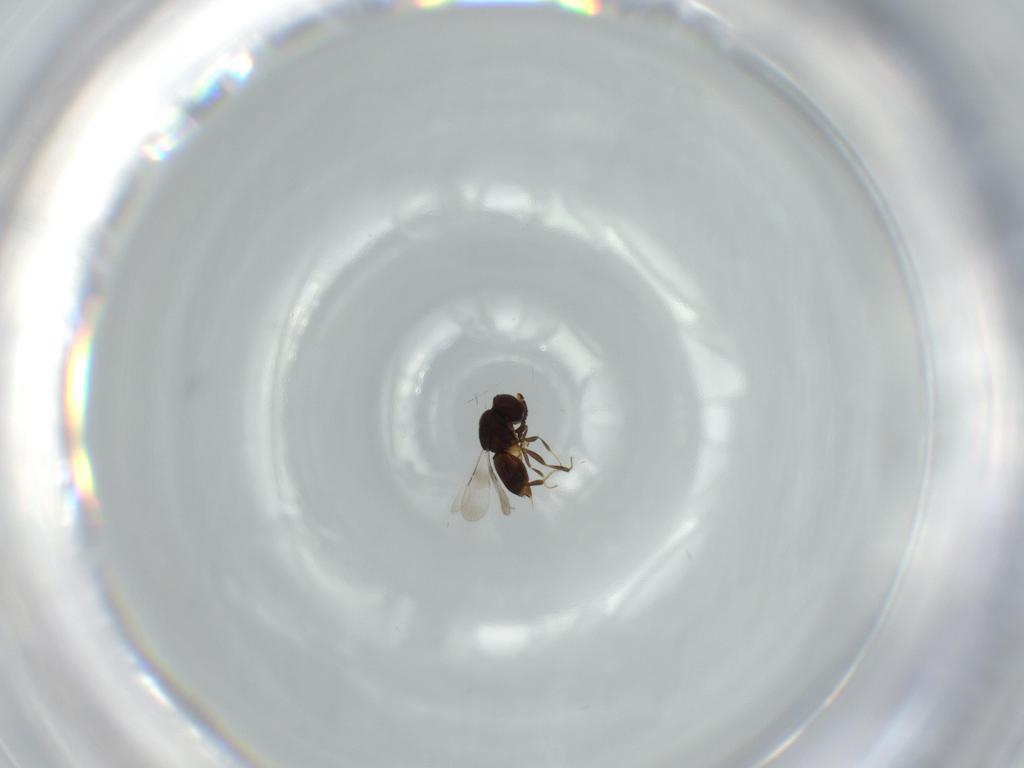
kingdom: Animalia
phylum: Arthropoda
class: Insecta
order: Hymenoptera
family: Ceraphronidae
